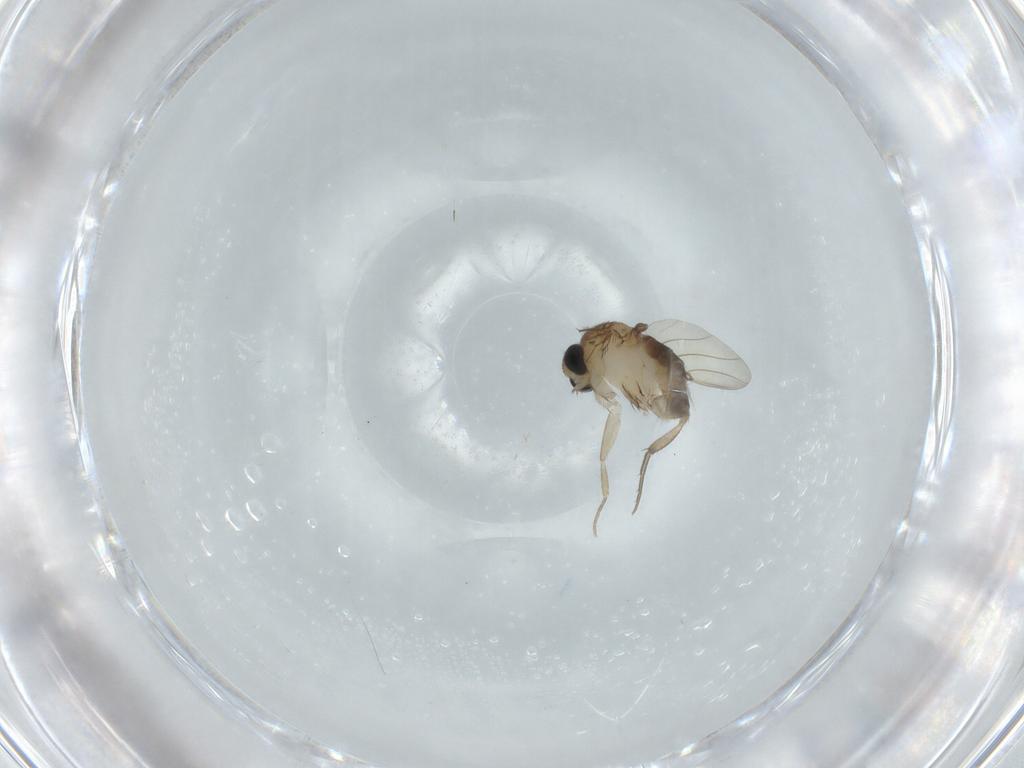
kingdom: Animalia
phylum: Arthropoda
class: Insecta
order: Diptera
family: Phoridae
